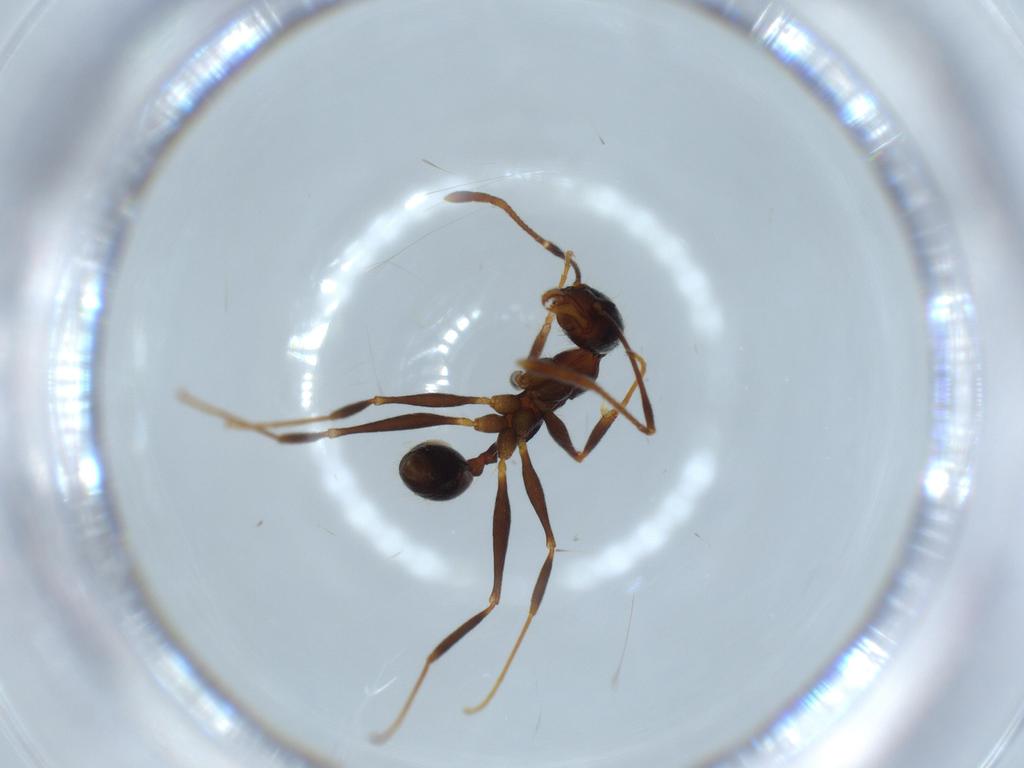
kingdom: Animalia
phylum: Arthropoda
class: Insecta
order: Hymenoptera
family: Formicidae
